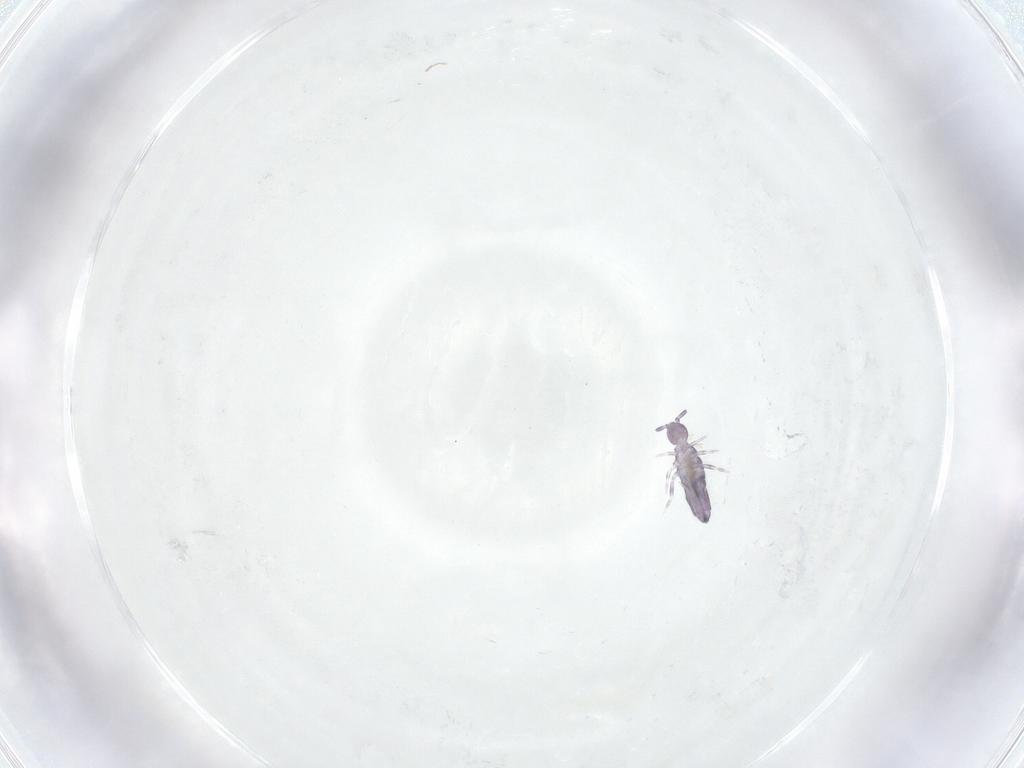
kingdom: Animalia
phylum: Arthropoda
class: Collembola
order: Entomobryomorpha
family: Entomobryidae
